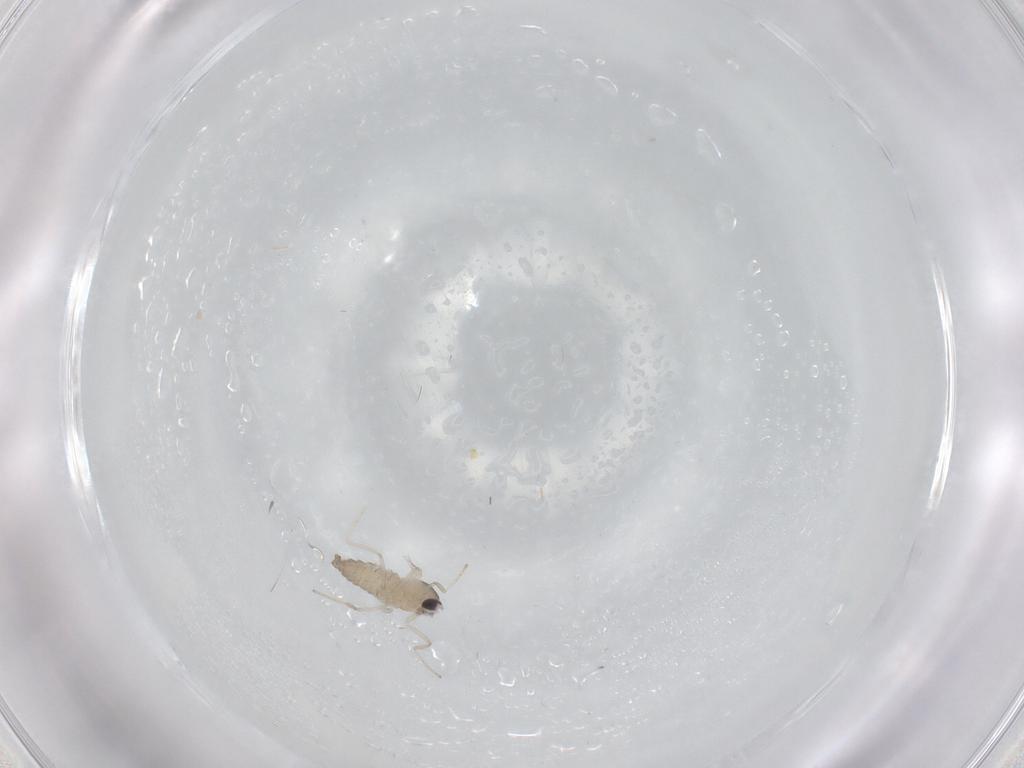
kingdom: Animalia
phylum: Arthropoda
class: Insecta
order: Diptera
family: Cecidomyiidae
